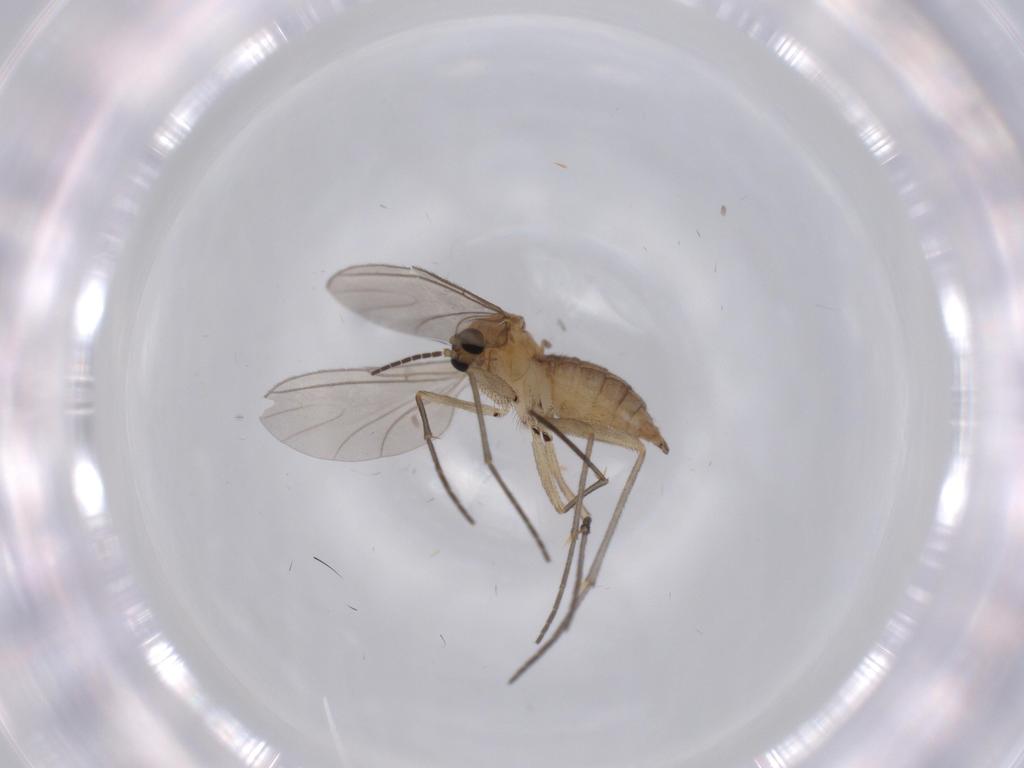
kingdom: Animalia
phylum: Arthropoda
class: Insecta
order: Diptera
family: Sciaridae
